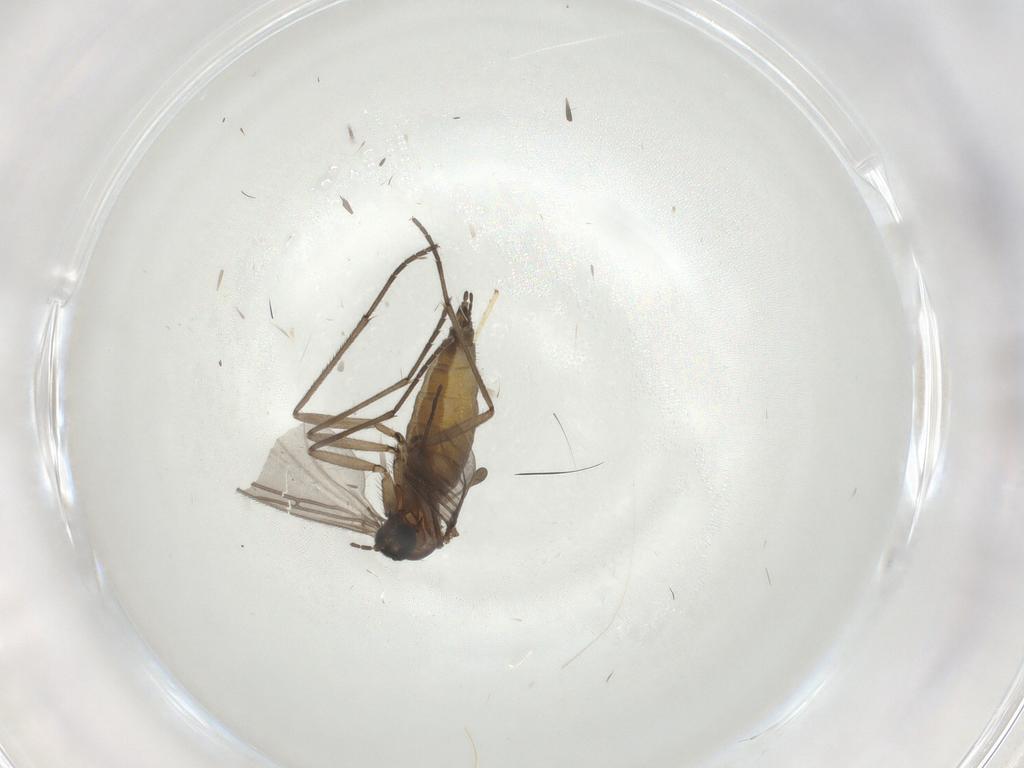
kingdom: Animalia
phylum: Arthropoda
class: Insecta
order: Diptera
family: Sciaridae
